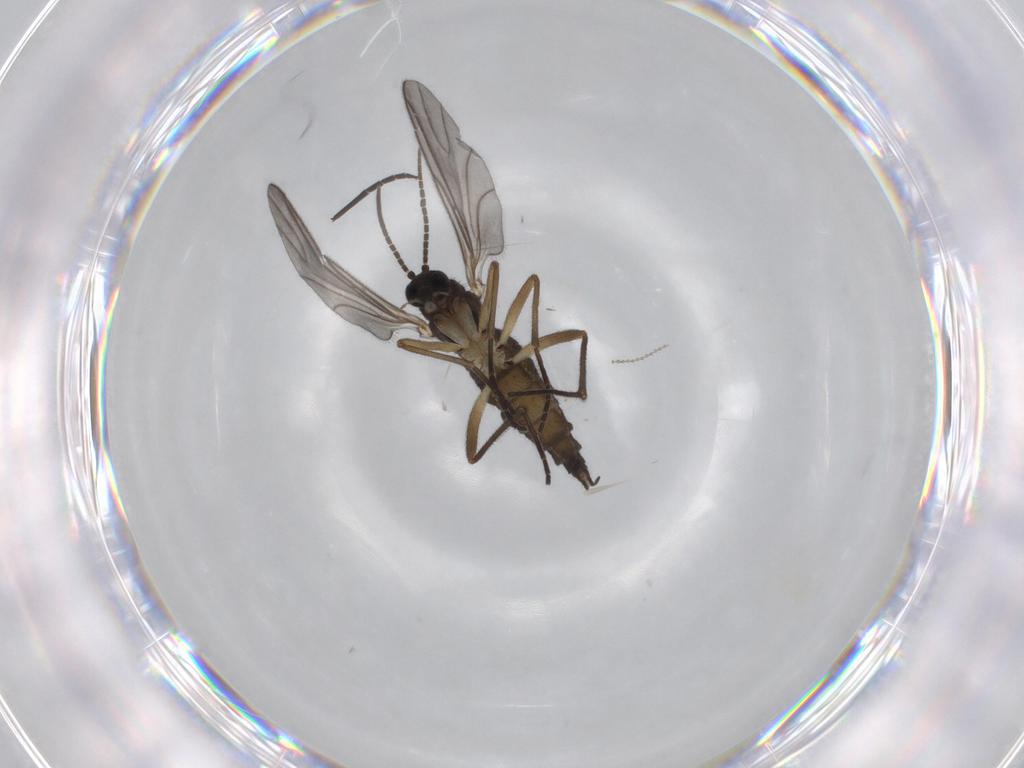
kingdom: Animalia
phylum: Arthropoda
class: Insecta
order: Diptera
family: Sciaridae
